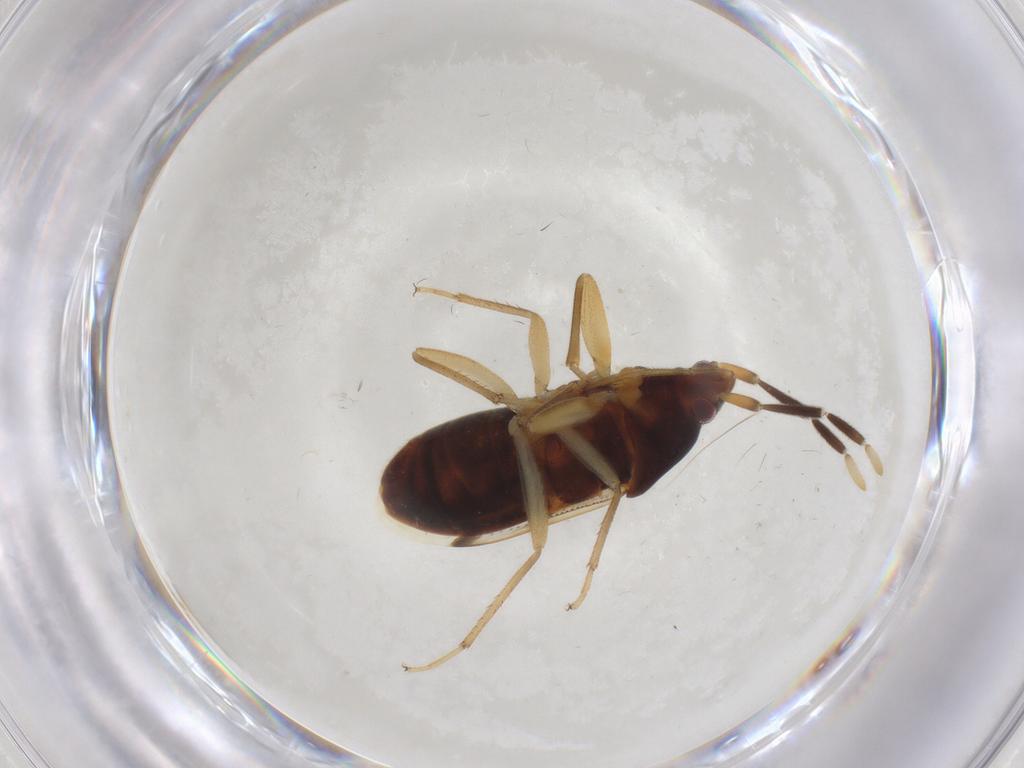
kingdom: Animalia
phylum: Arthropoda
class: Insecta
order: Hemiptera
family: Rhyparochromidae
